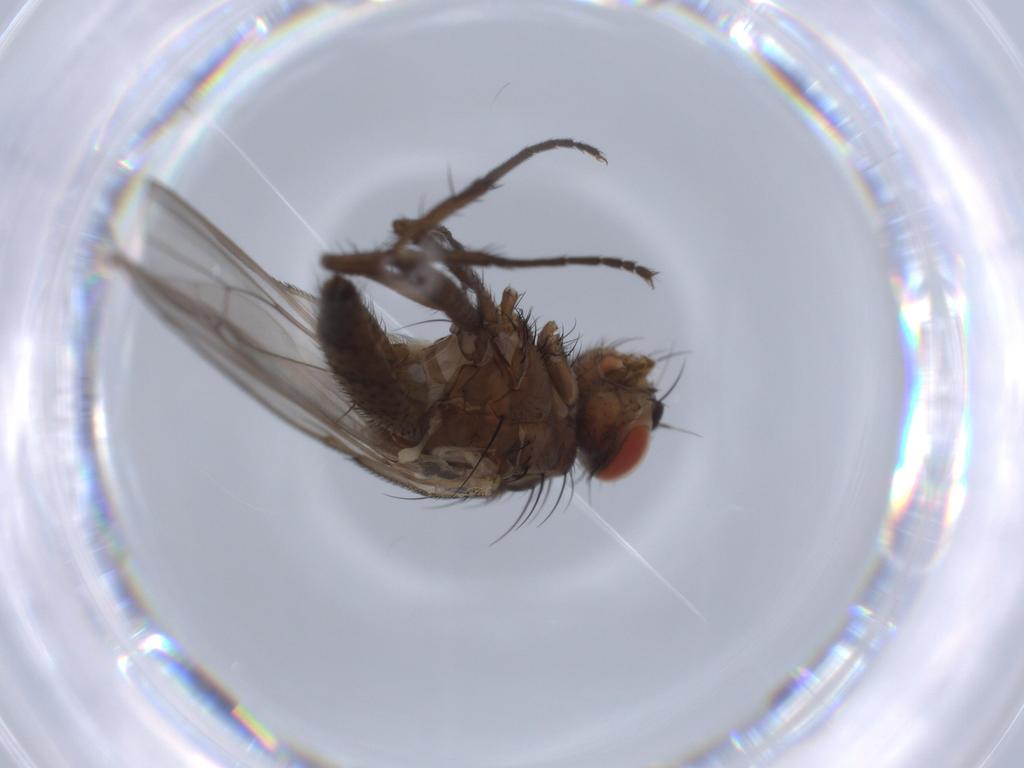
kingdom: Animalia
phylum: Arthropoda
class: Insecta
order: Diptera
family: Anthomyiidae
